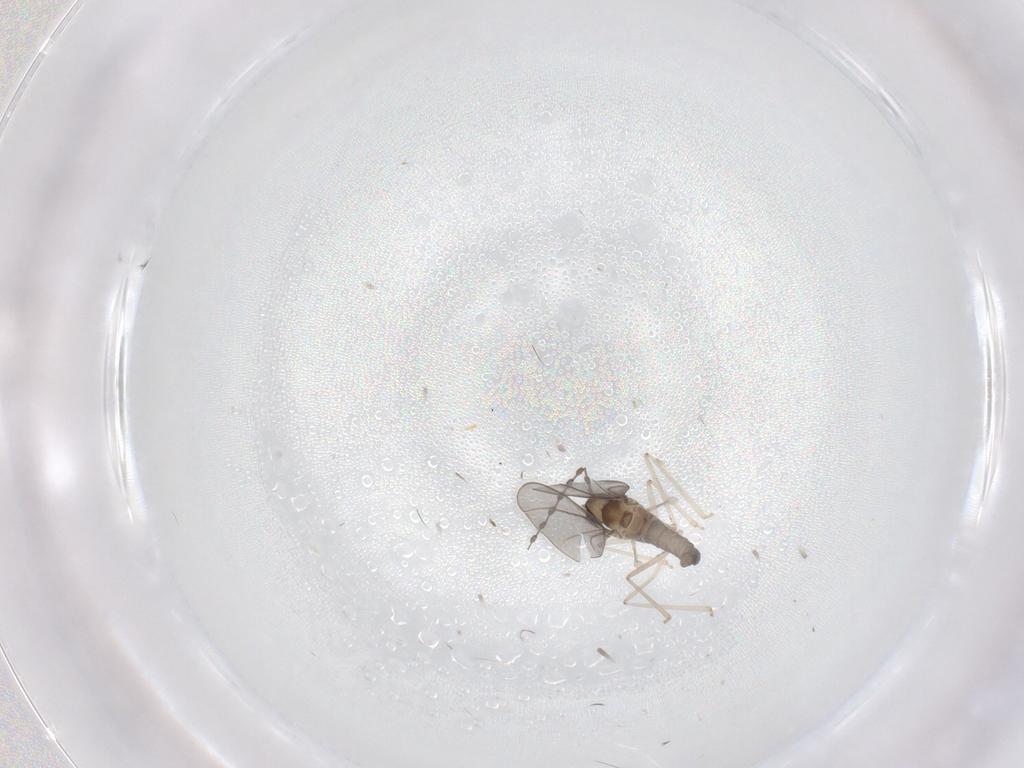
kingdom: Animalia
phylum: Arthropoda
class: Insecta
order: Diptera
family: Cecidomyiidae
